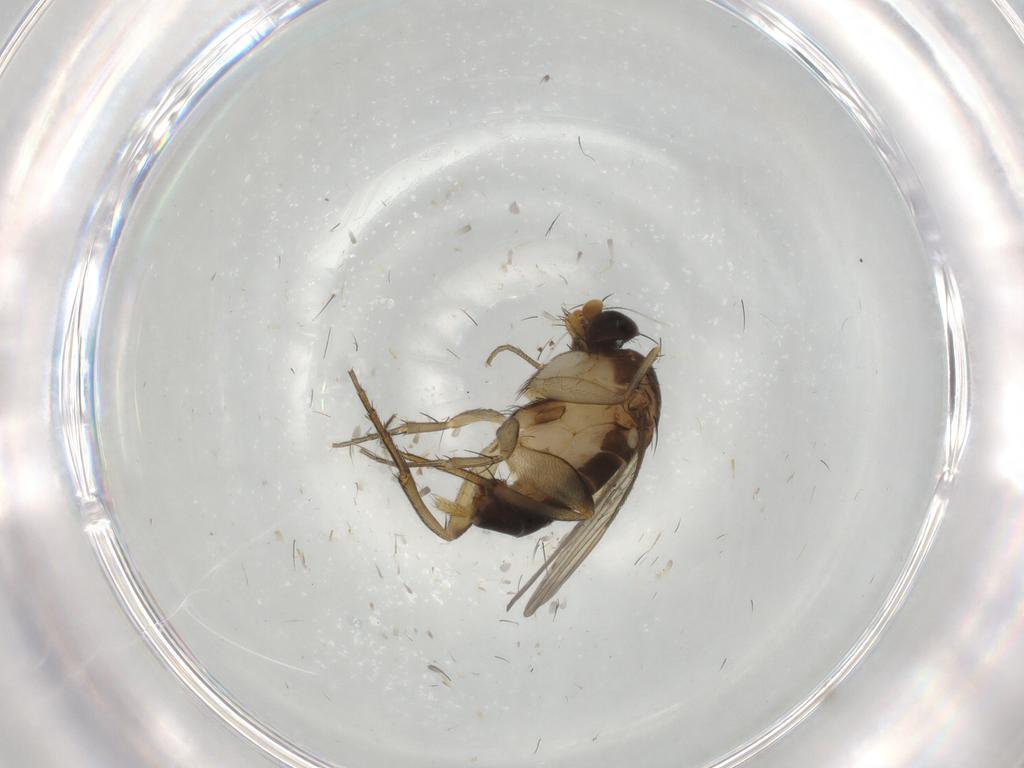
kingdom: Animalia
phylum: Arthropoda
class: Insecta
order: Diptera
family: Phoridae
